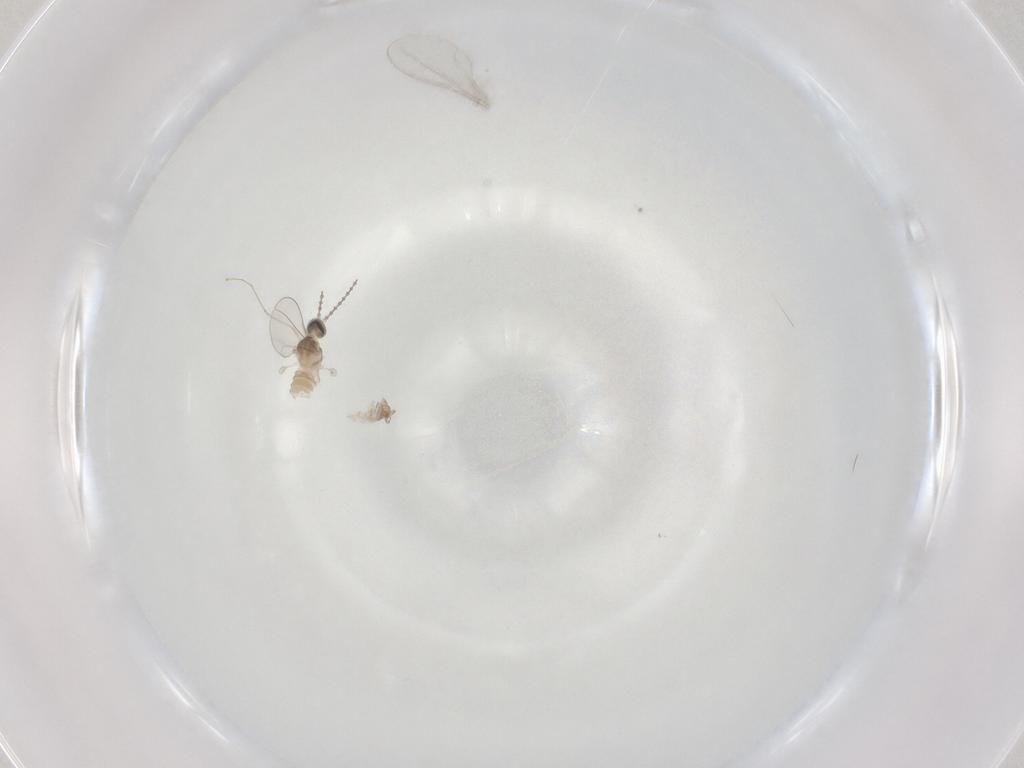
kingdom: Animalia
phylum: Arthropoda
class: Insecta
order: Diptera
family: Cecidomyiidae
